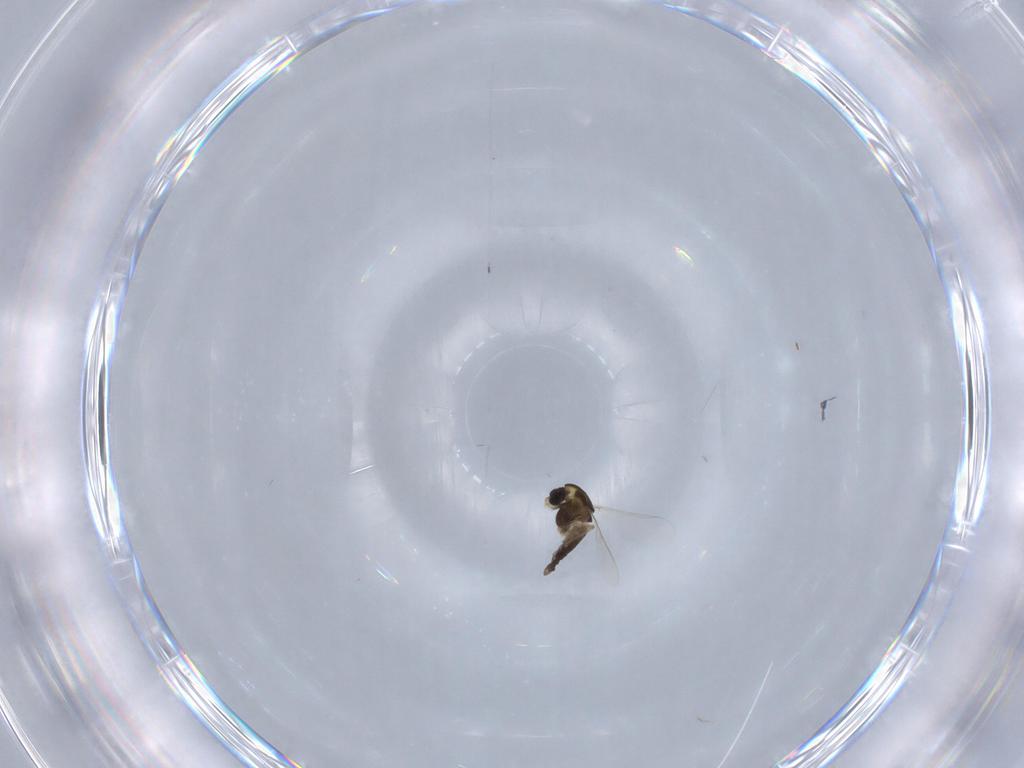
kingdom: Animalia
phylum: Arthropoda
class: Insecta
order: Diptera
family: Chironomidae
